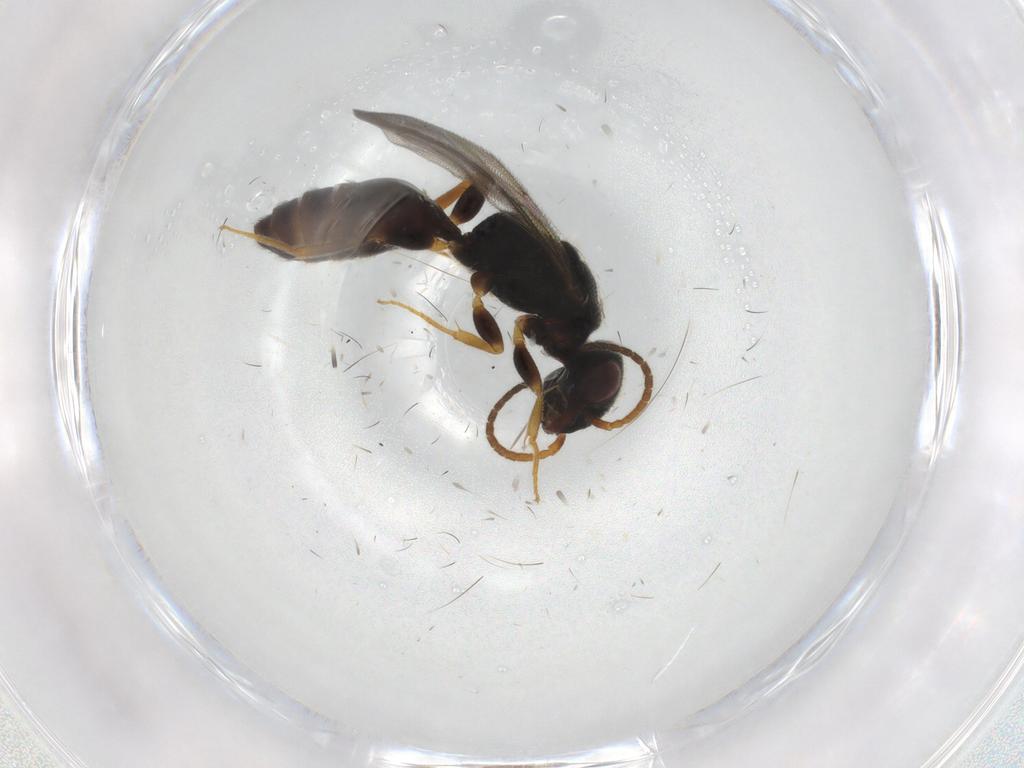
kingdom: Animalia
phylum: Arthropoda
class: Insecta
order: Hymenoptera
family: Bethylidae
